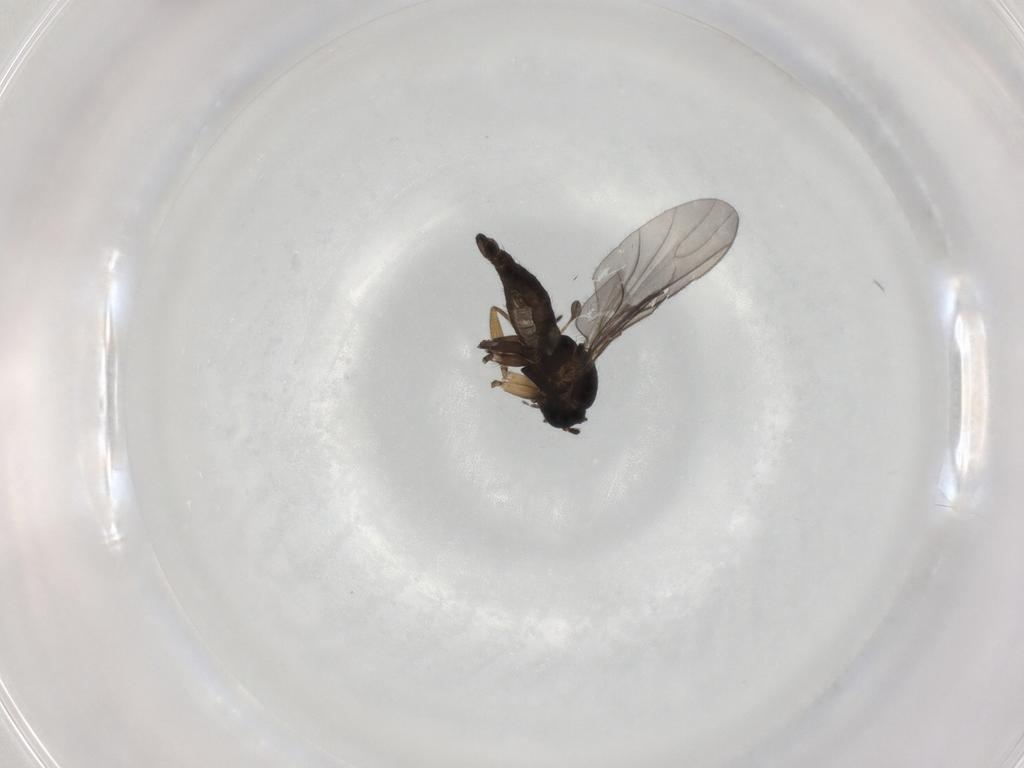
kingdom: Animalia
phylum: Arthropoda
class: Insecta
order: Diptera
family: Sciaridae
